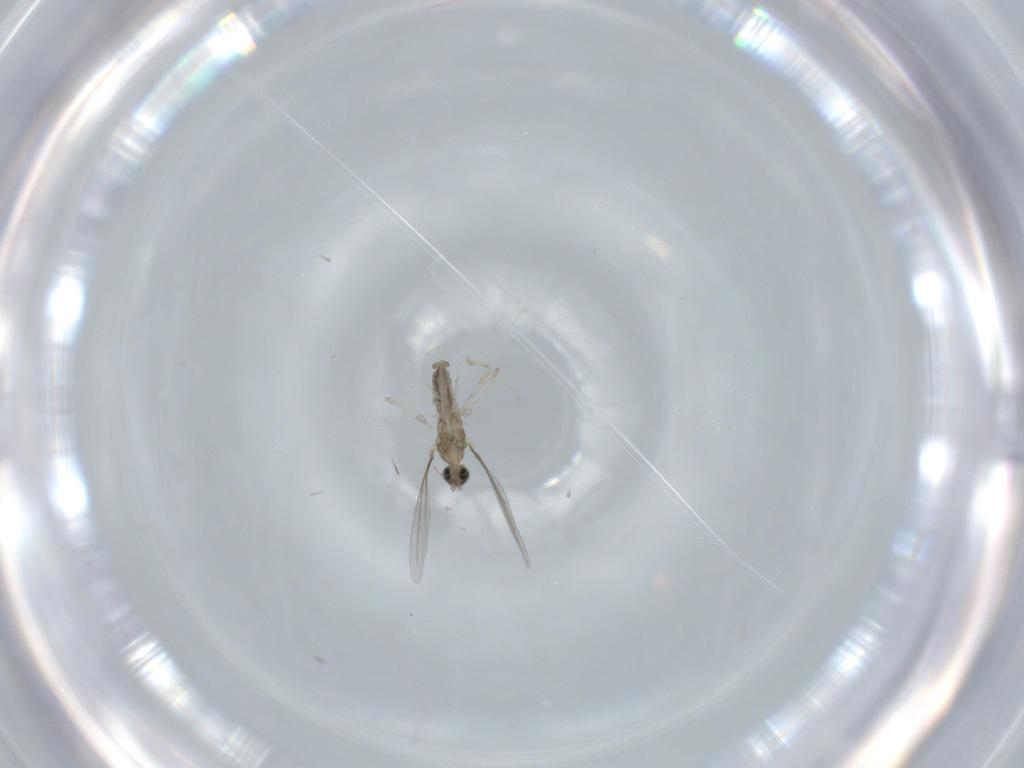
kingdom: Animalia
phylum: Arthropoda
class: Insecta
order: Diptera
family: Cecidomyiidae
